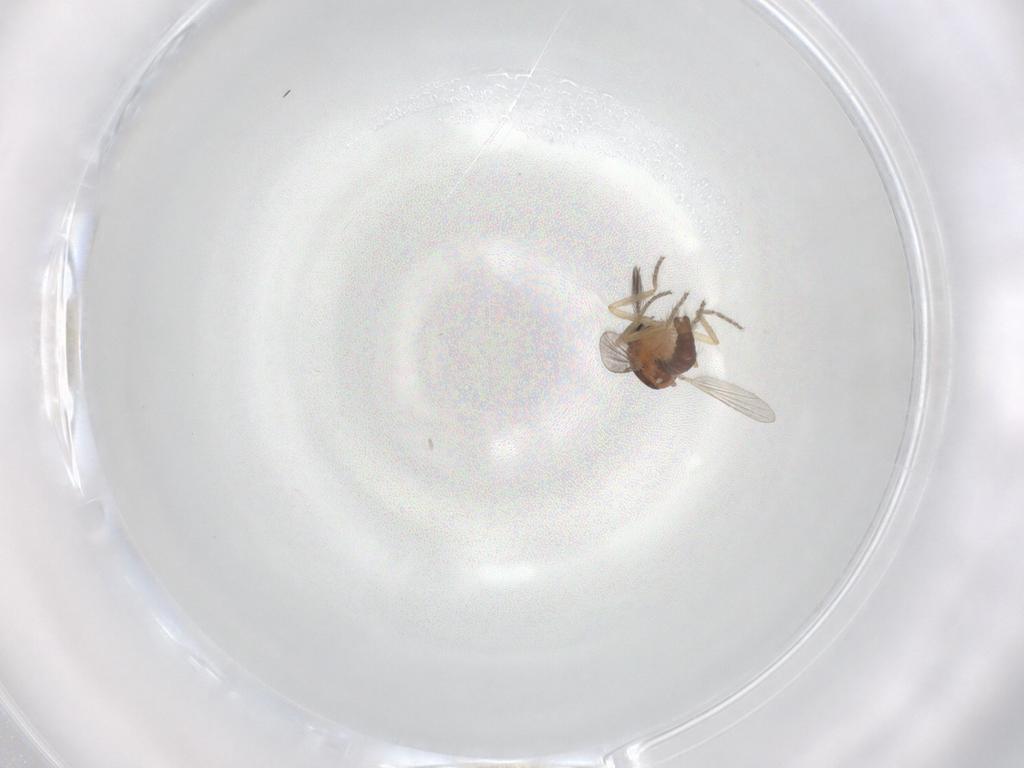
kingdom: Animalia
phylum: Arthropoda
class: Insecta
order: Diptera
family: Ceratopogonidae
